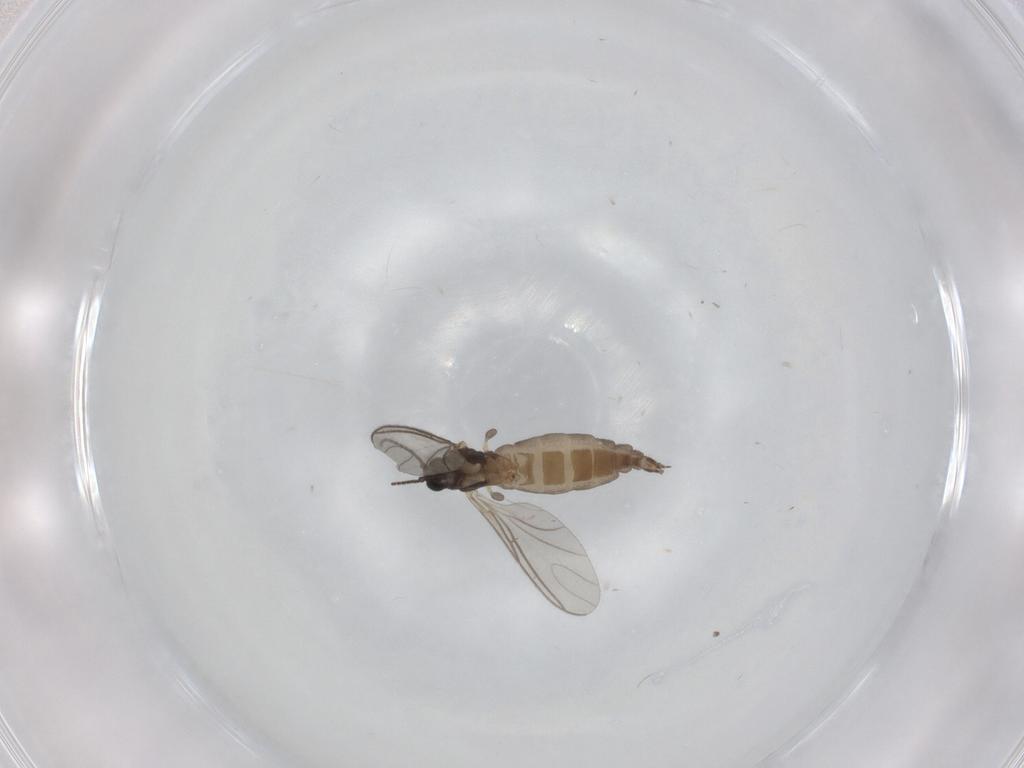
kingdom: Animalia
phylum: Arthropoda
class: Insecta
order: Diptera
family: Sciaridae
